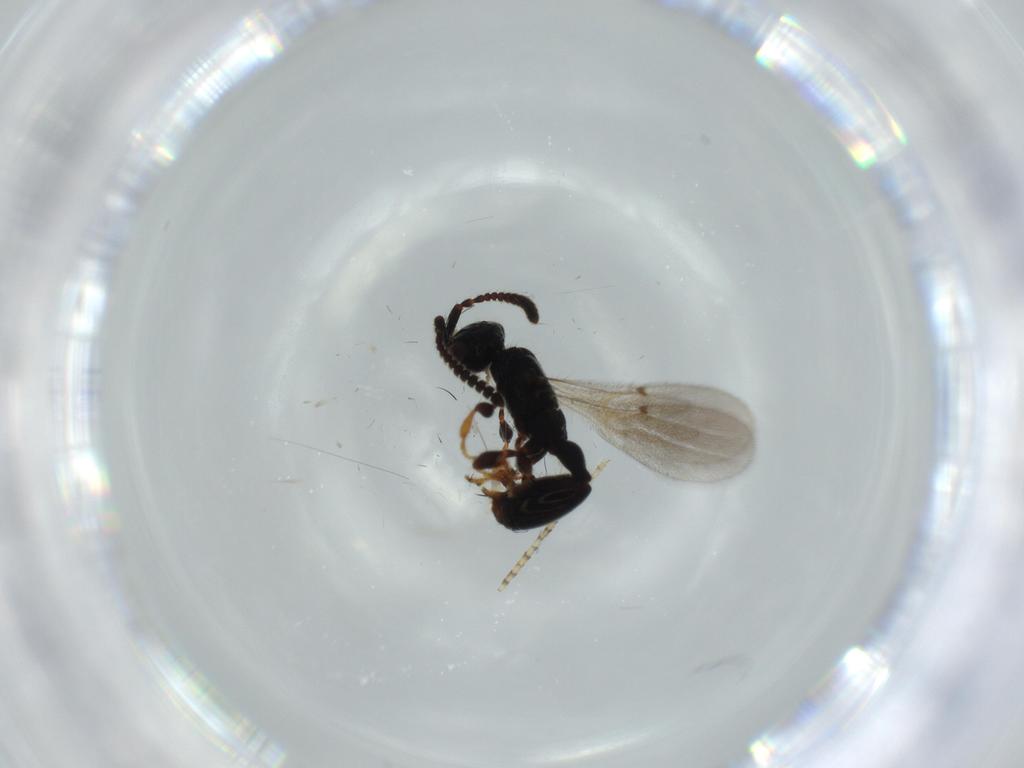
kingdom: Animalia
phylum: Arthropoda
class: Insecta
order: Hymenoptera
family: Diapriidae
